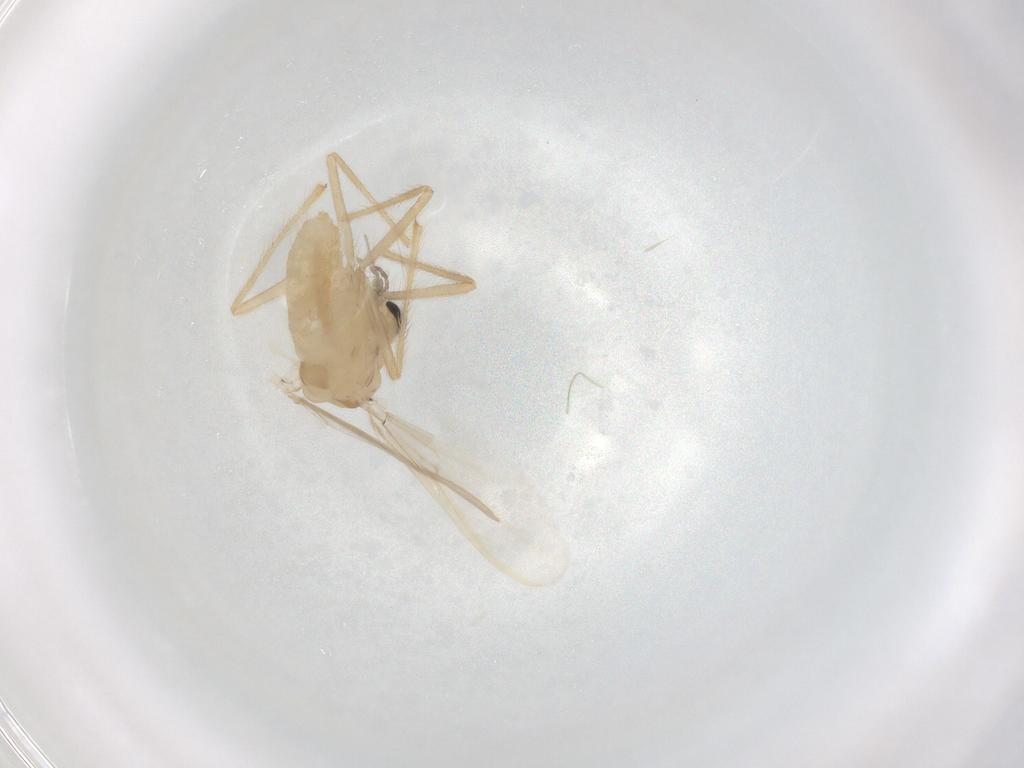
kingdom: Animalia
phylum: Arthropoda
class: Insecta
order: Diptera
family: Chironomidae
